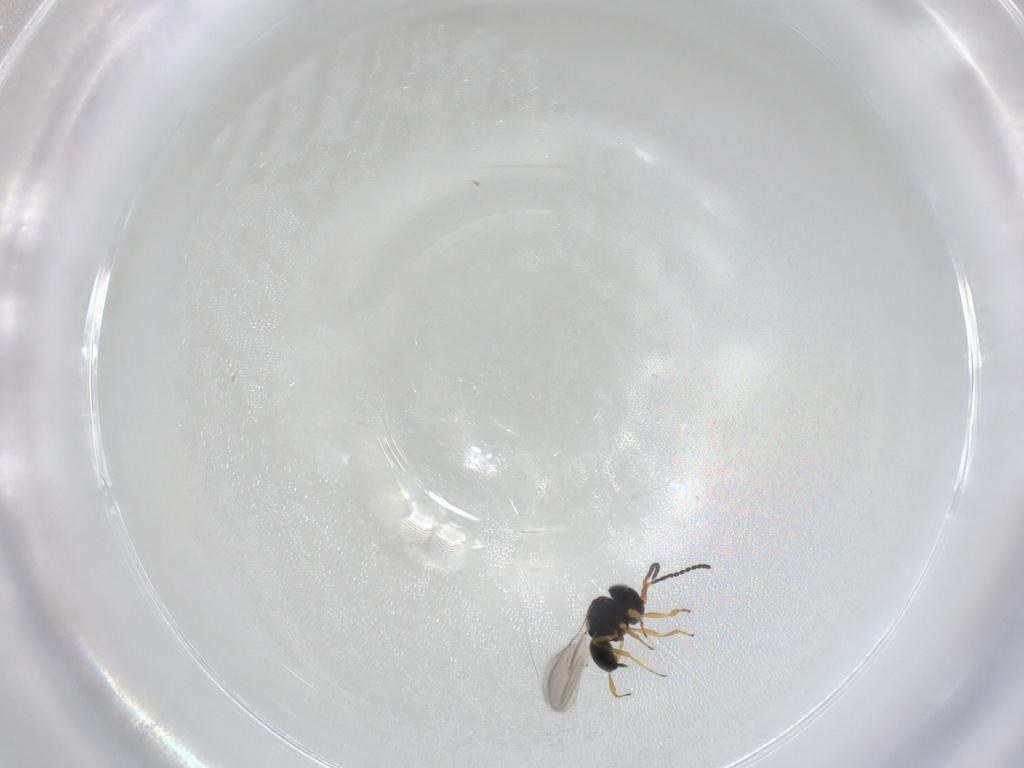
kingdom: Animalia
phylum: Arthropoda
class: Insecta
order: Hymenoptera
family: Scelionidae
